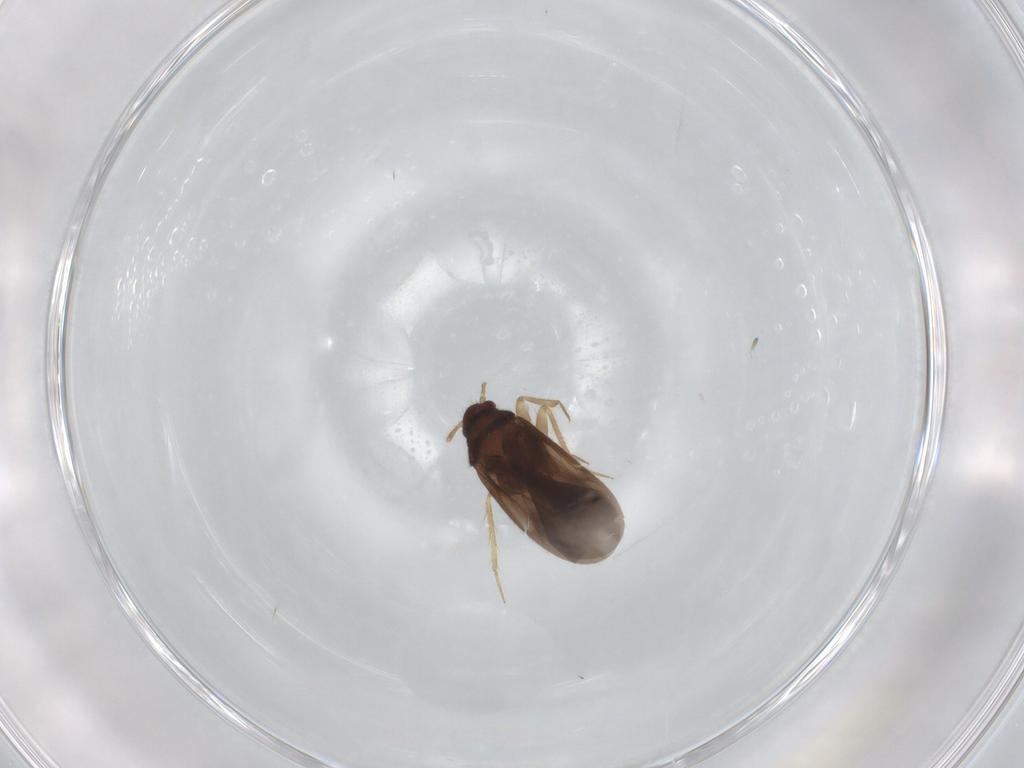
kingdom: Animalia
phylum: Arthropoda
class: Insecta
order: Hemiptera
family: Ceratocombidae
